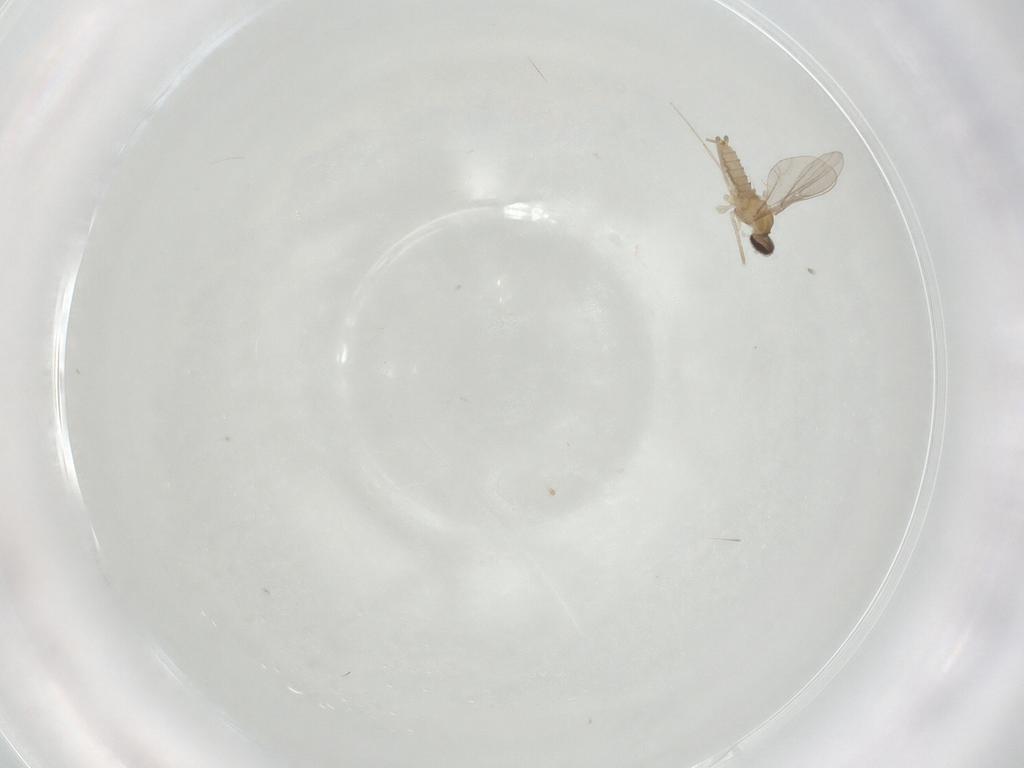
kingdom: Animalia
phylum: Arthropoda
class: Insecta
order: Diptera
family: Cecidomyiidae
